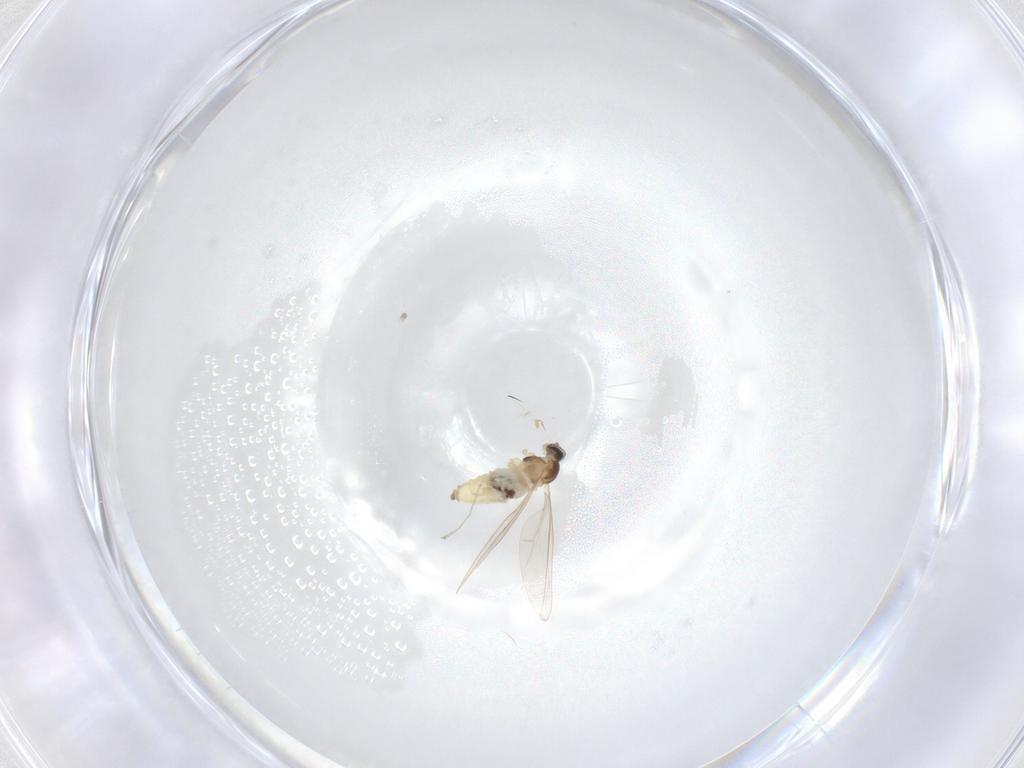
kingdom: Animalia
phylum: Arthropoda
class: Insecta
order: Diptera
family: Cecidomyiidae
